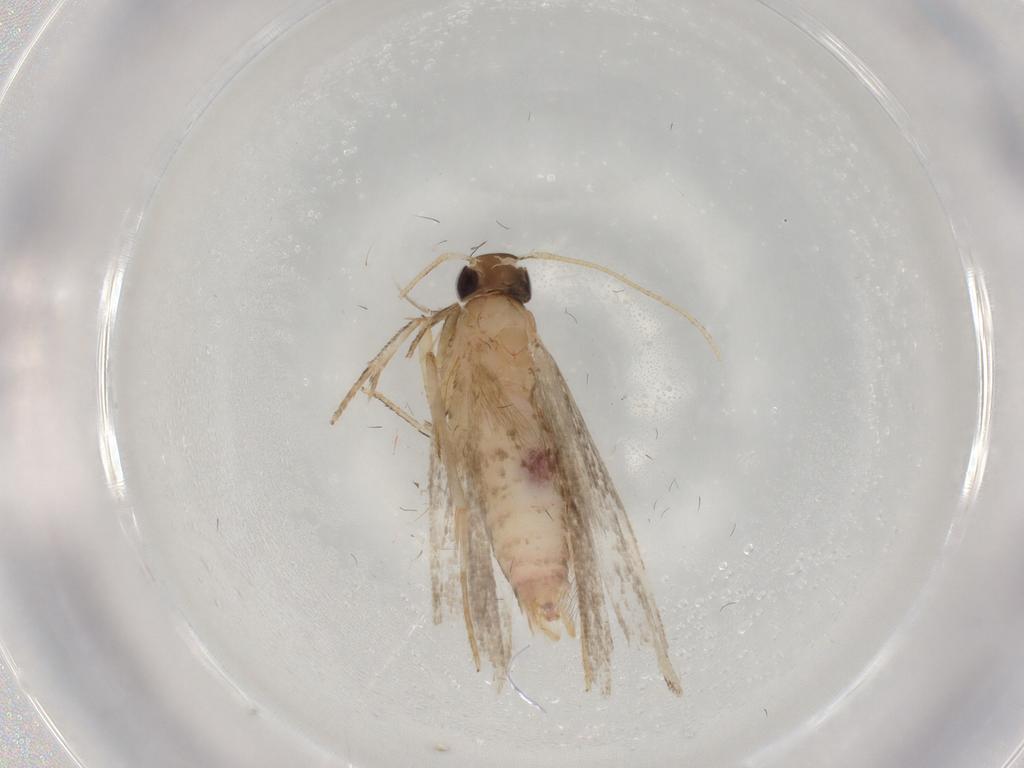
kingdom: Animalia
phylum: Arthropoda
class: Insecta
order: Lepidoptera
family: Gelechiidae
